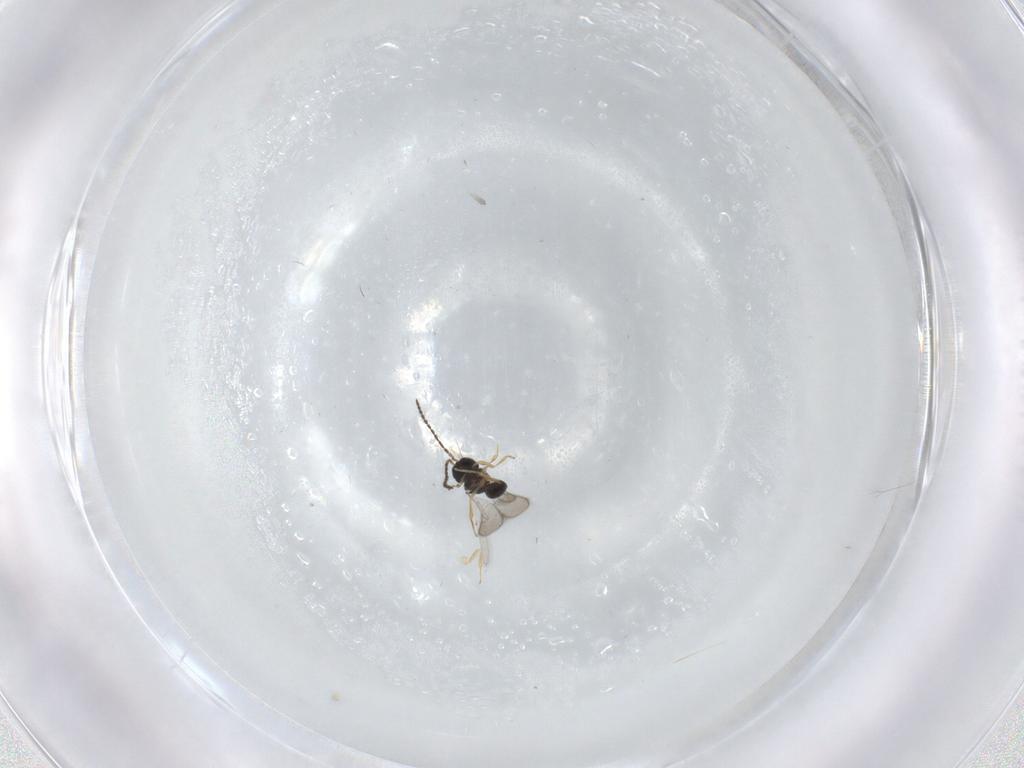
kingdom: Animalia
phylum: Arthropoda
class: Insecta
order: Hymenoptera
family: Scelionidae
